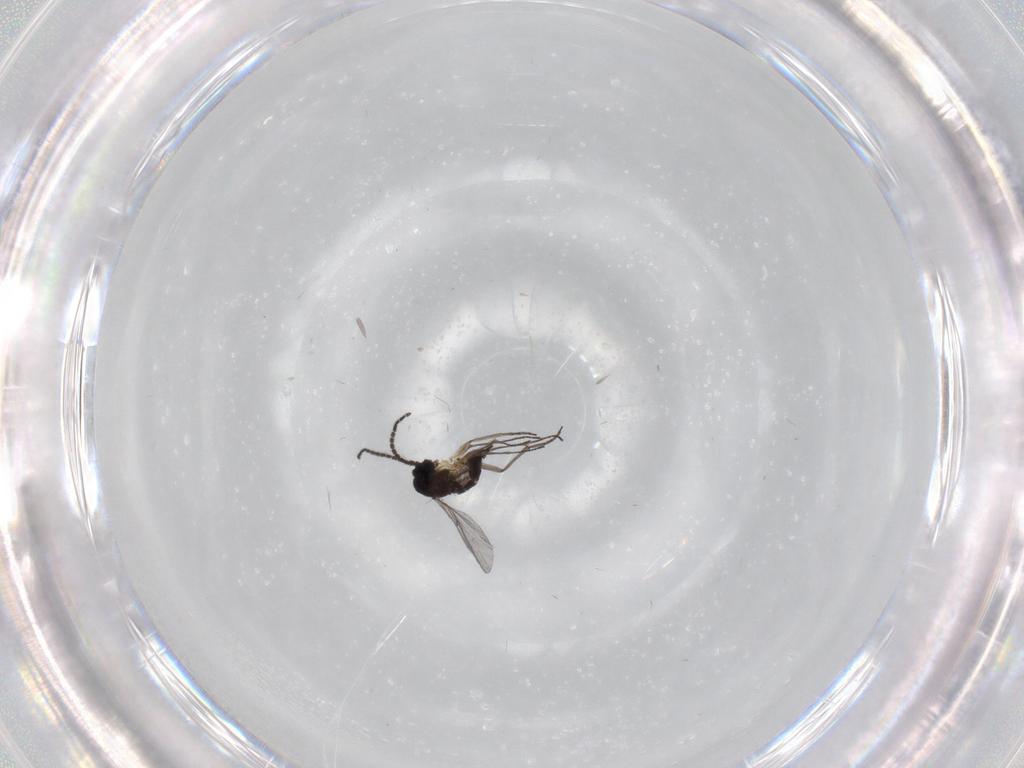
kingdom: Animalia
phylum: Arthropoda
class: Insecta
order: Diptera
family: Sciaridae
